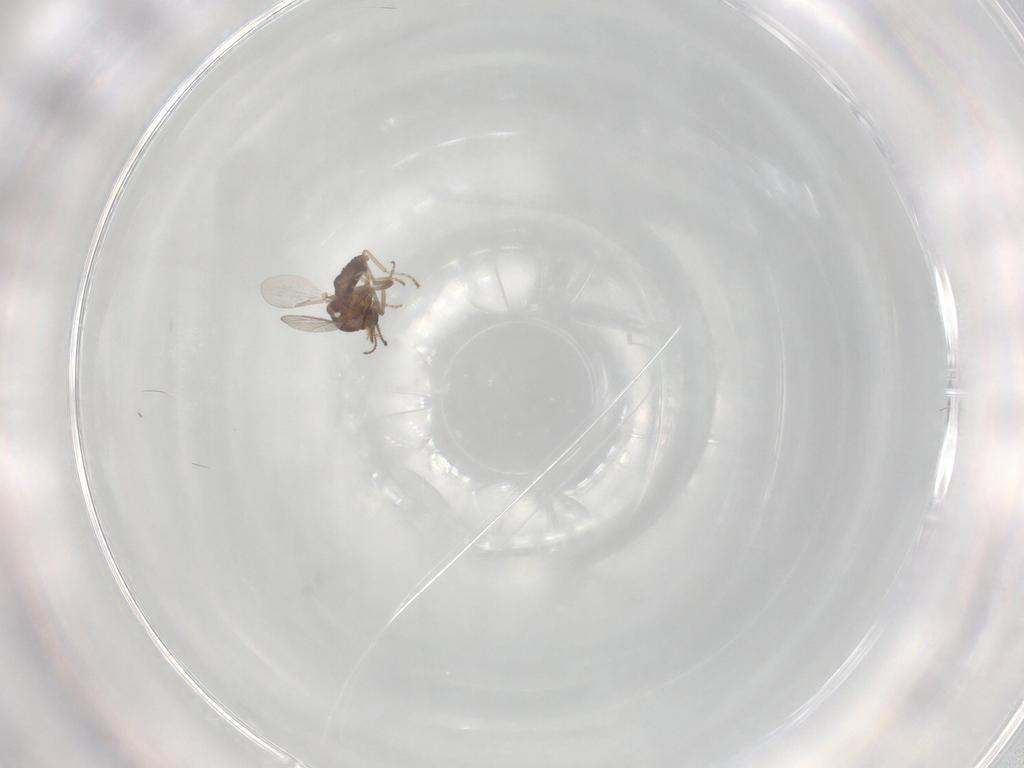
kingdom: Animalia
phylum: Arthropoda
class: Insecta
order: Diptera
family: Ceratopogonidae
